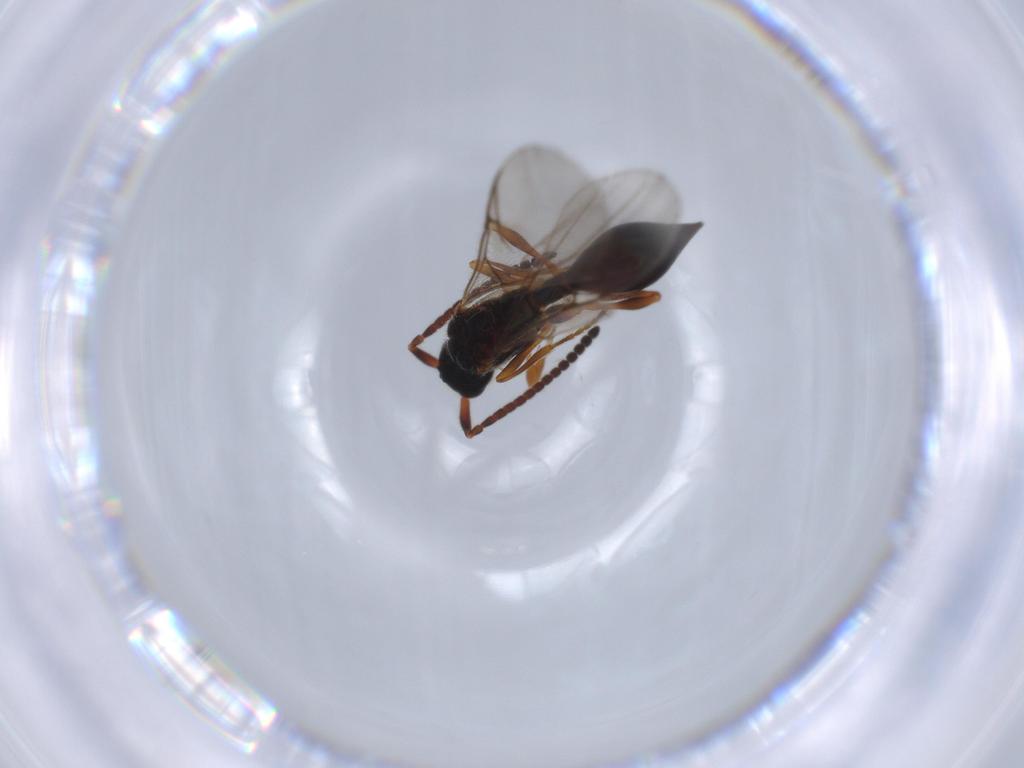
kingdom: Animalia
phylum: Arthropoda
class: Insecta
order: Hymenoptera
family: Diapriidae
